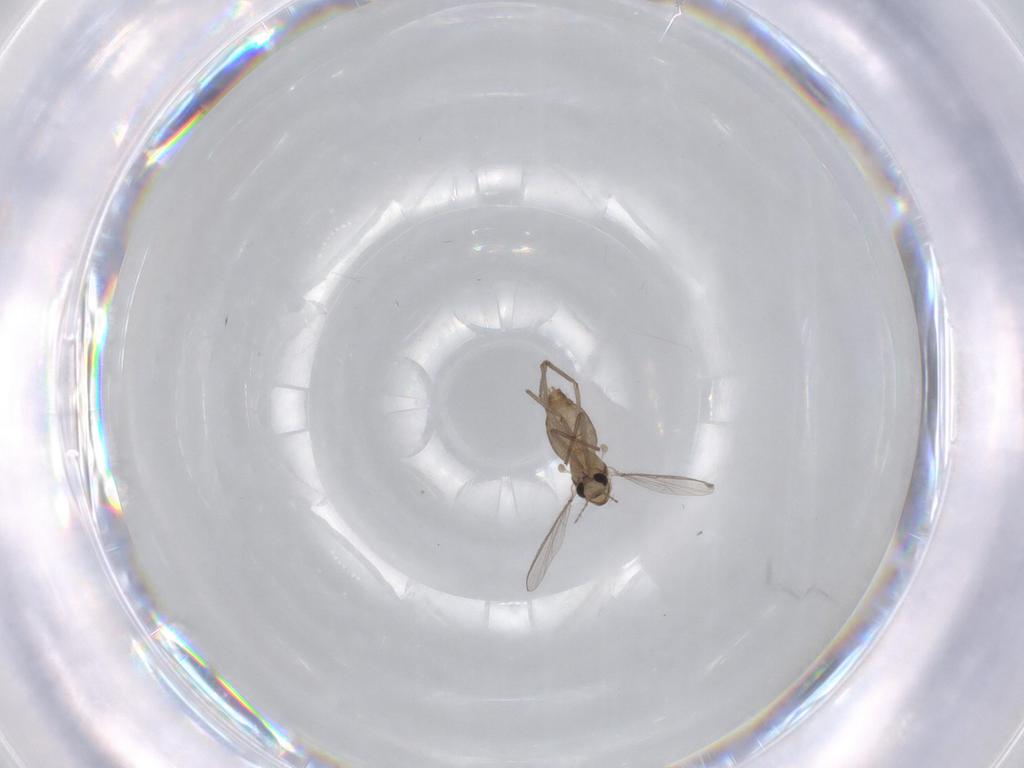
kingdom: Animalia
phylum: Arthropoda
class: Insecta
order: Diptera
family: Chironomidae
